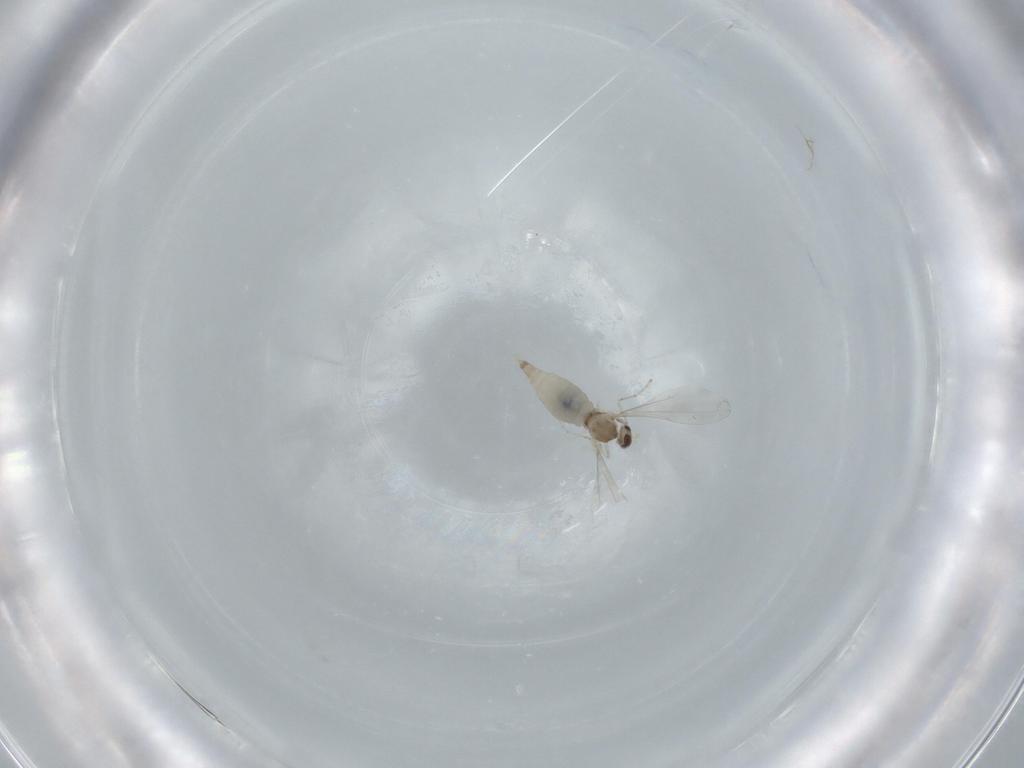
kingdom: Animalia
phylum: Arthropoda
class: Insecta
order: Diptera
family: Cecidomyiidae
